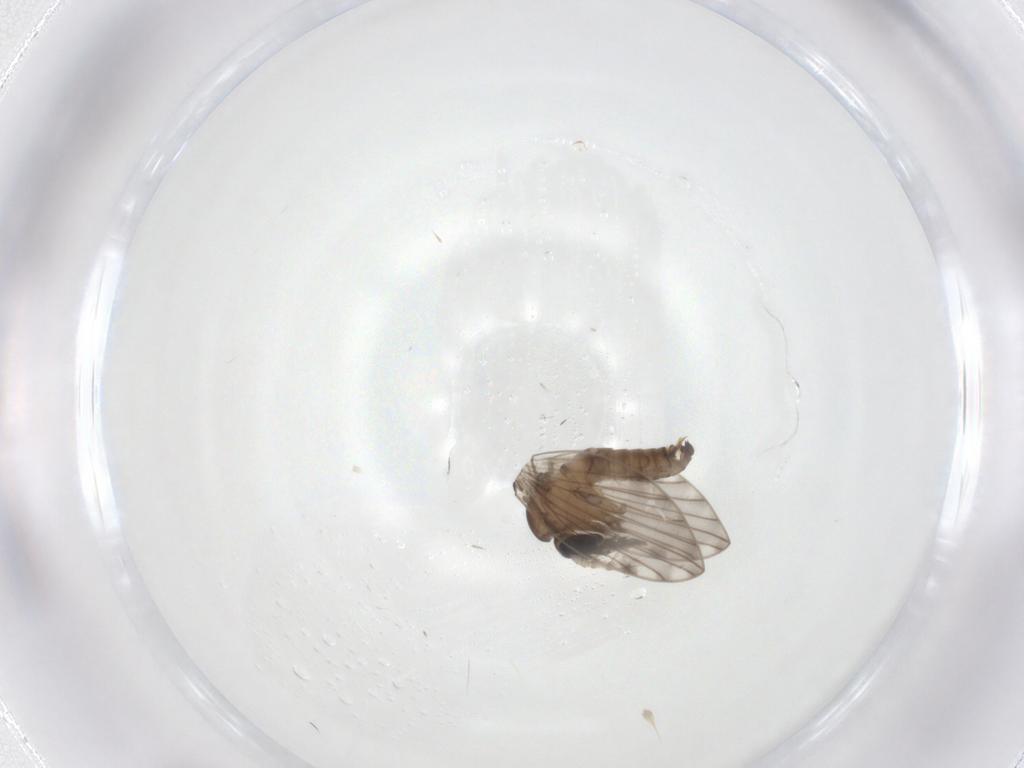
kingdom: Animalia
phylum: Arthropoda
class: Insecta
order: Diptera
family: Psychodidae
